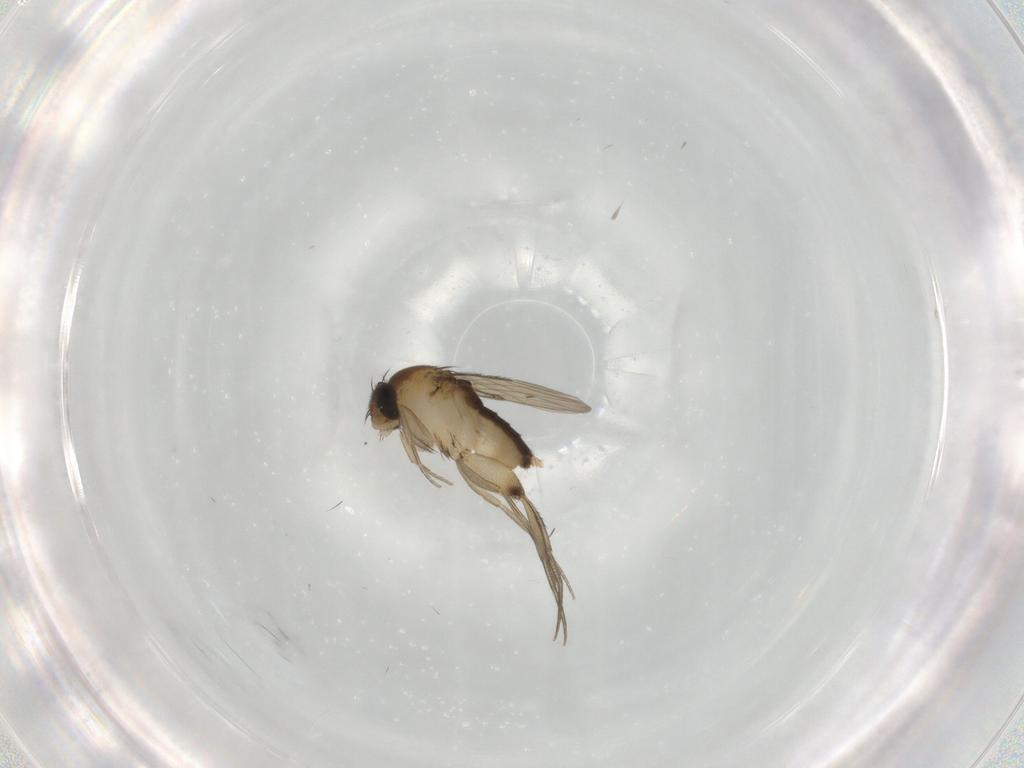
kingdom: Animalia
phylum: Arthropoda
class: Insecta
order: Diptera
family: Phoridae
